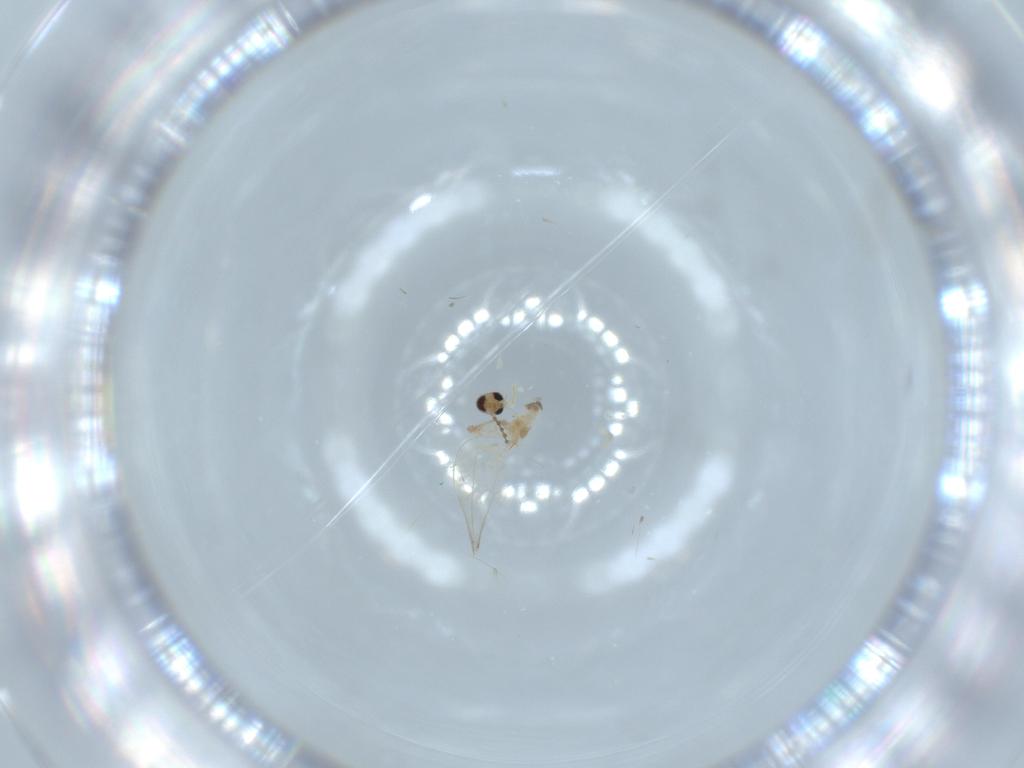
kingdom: Animalia
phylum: Arthropoda
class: Insecta
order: Diptera
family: Cecidomyiidae
